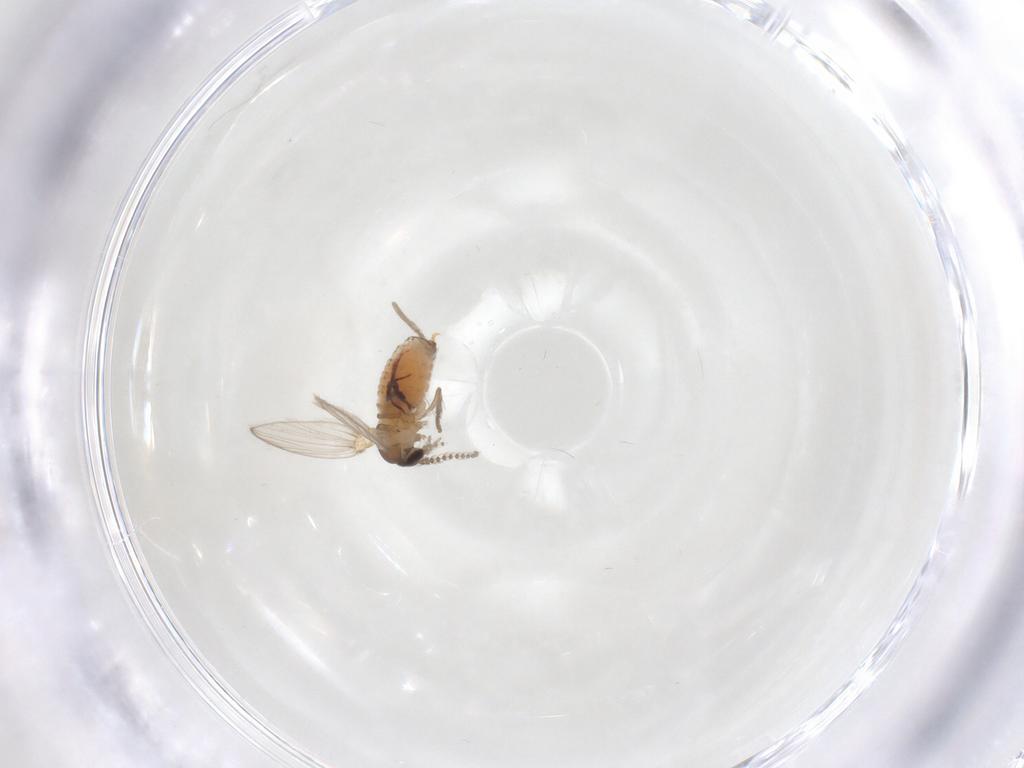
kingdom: Animalia
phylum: Arthropoda
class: Insecta
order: Diptera
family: Psychodidae
